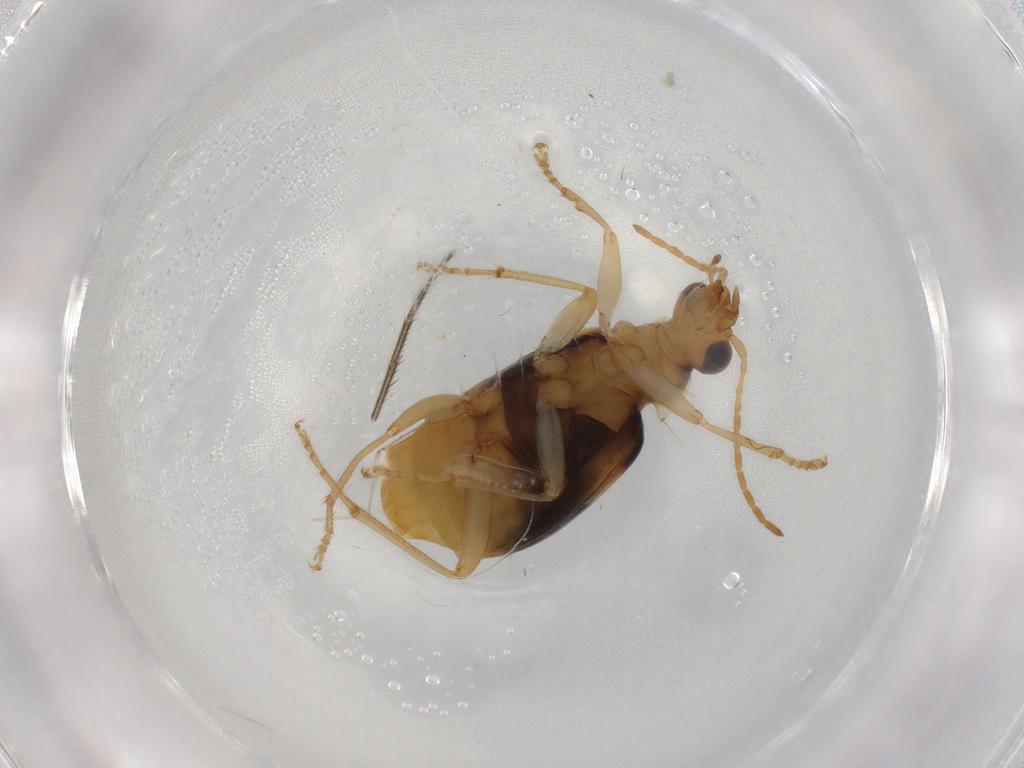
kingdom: Animalia
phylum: Arthropoda
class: Insecta
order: Coleoptera
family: Carabidae
